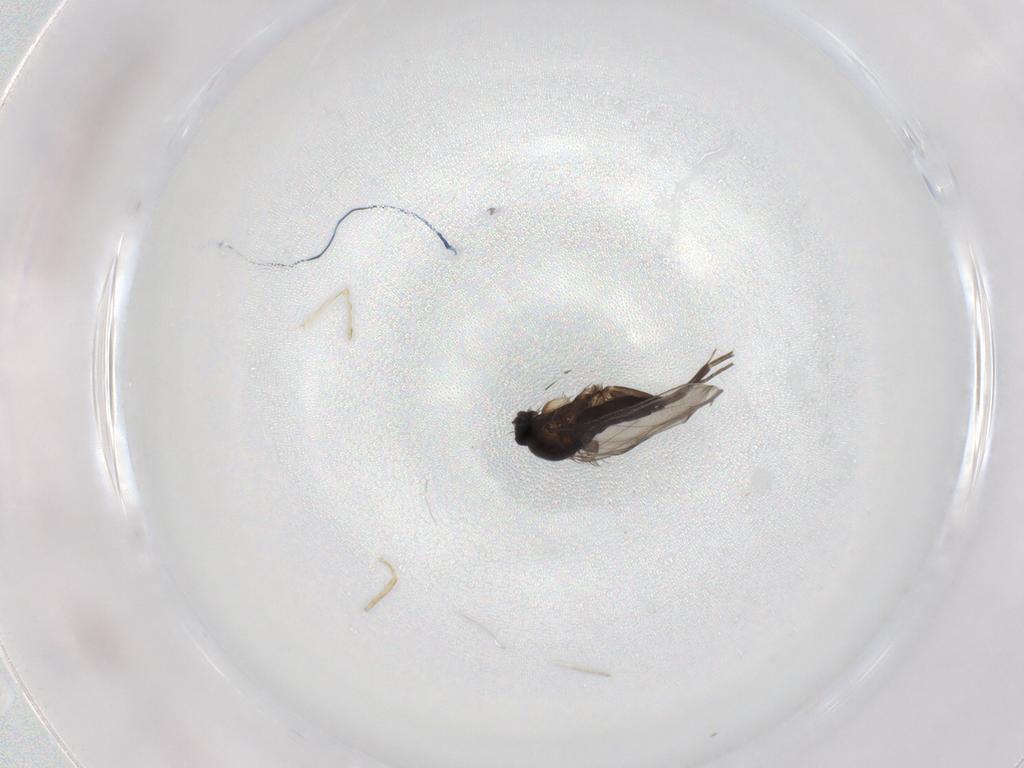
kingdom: Animalia
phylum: Arthropoda
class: Insecta
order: Diptera
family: Phoridae
